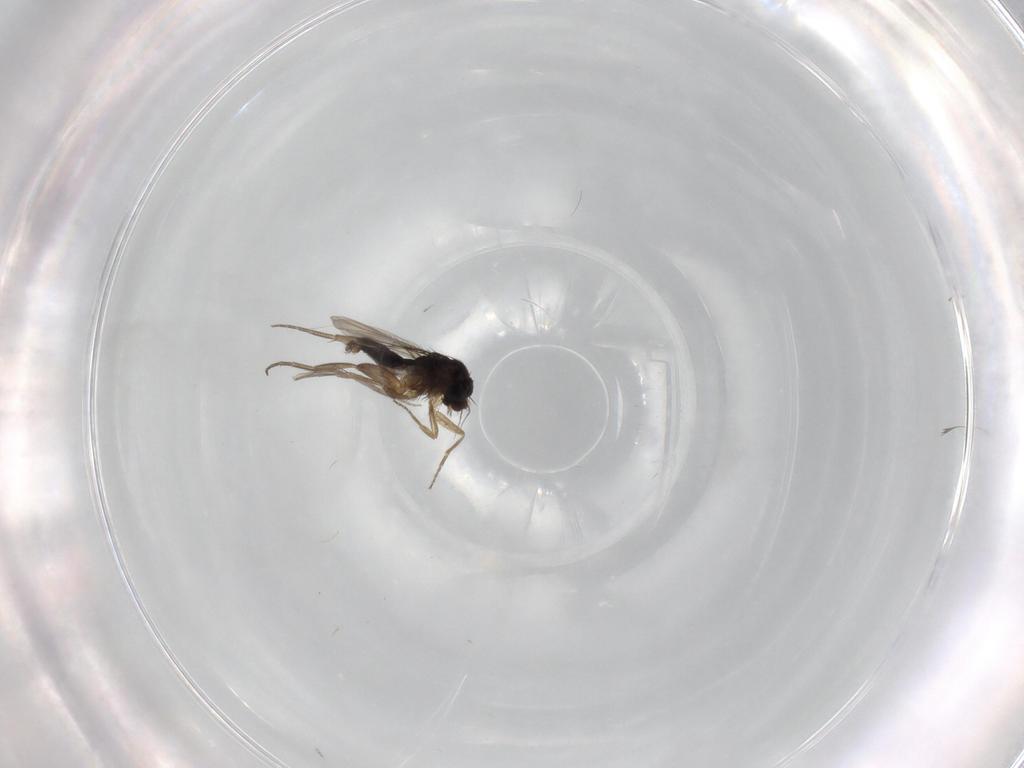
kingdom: Animalia
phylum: Arthropoda
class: Insecta
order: Diptera
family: Phoridae
